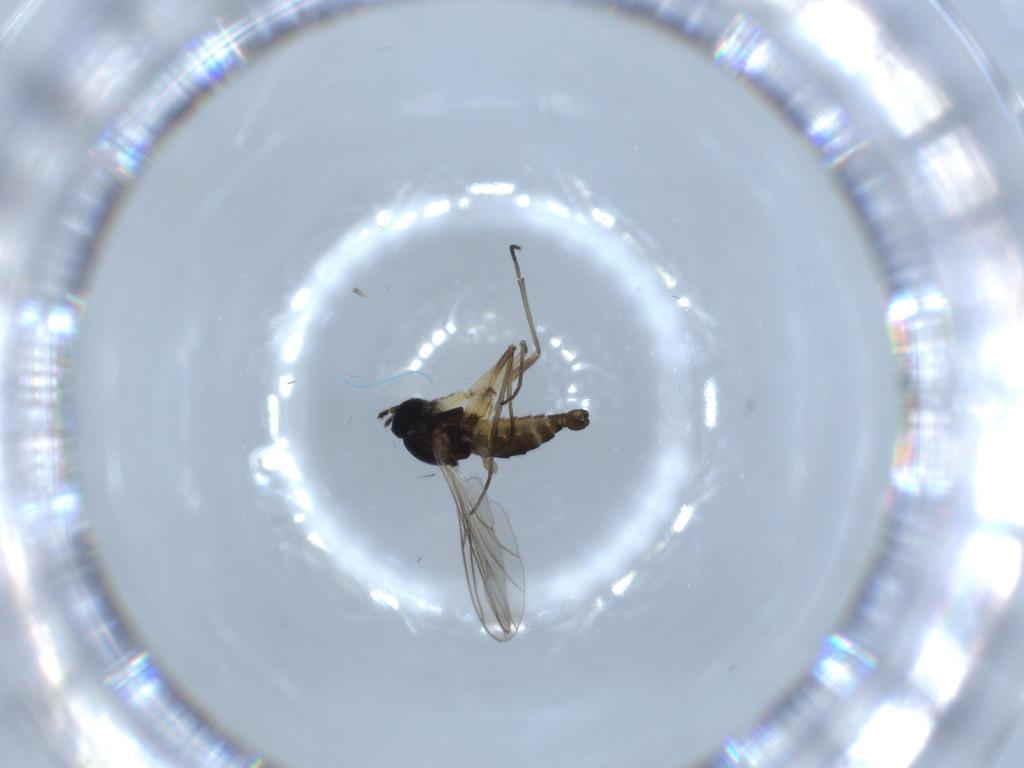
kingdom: Animalia
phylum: Arthropoda
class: Insecta
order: Diptera
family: Sciaridae
